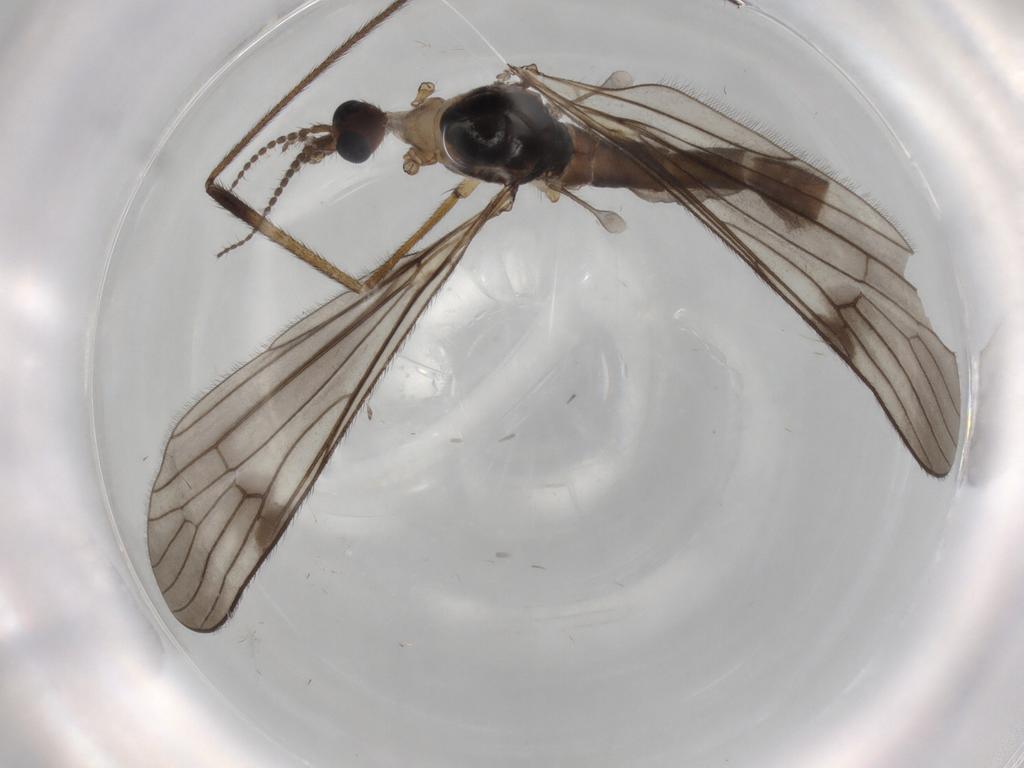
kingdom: Animalia
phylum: Arthropoda
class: Insecta
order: Diptera
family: Limoniidae
